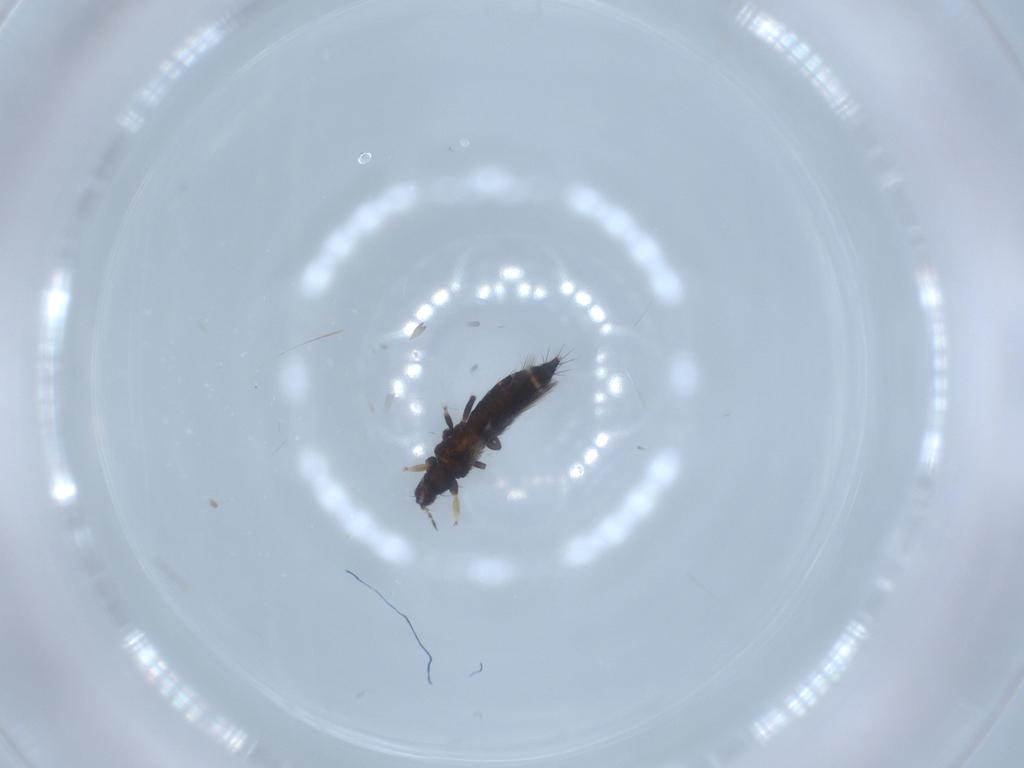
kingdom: Animalia
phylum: Arthropoda
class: Insecta
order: Thysanoptera
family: Thripidae
